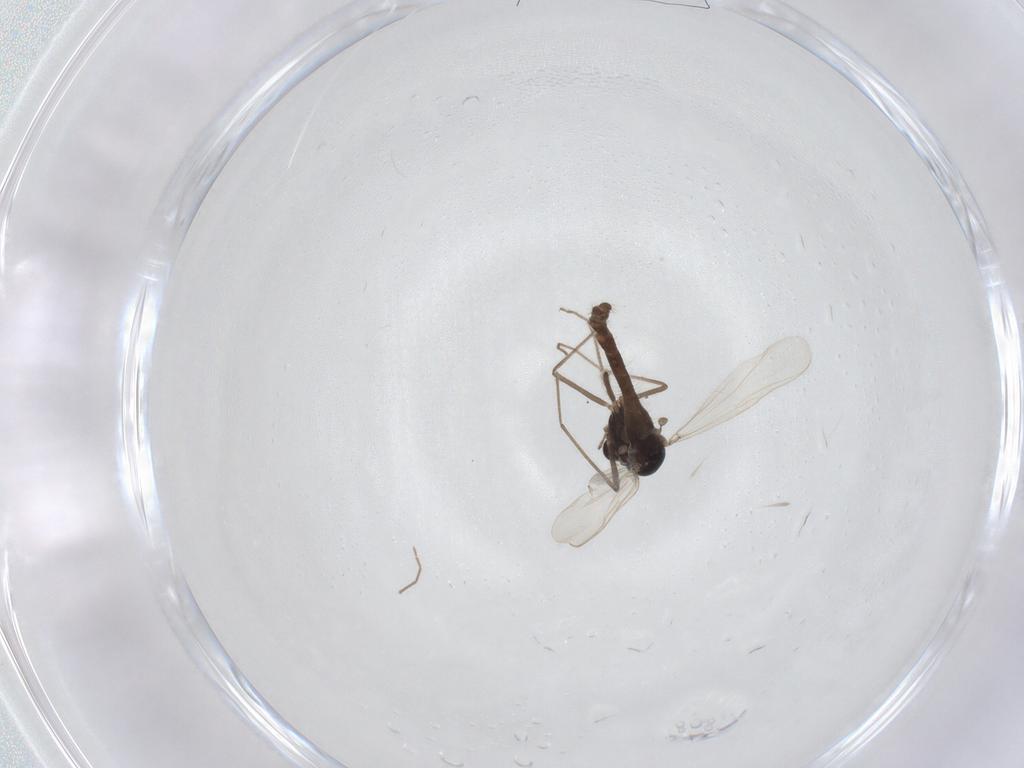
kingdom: Animalia
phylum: Arthropoda
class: Insecta
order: Diptera
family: Chironomidae
